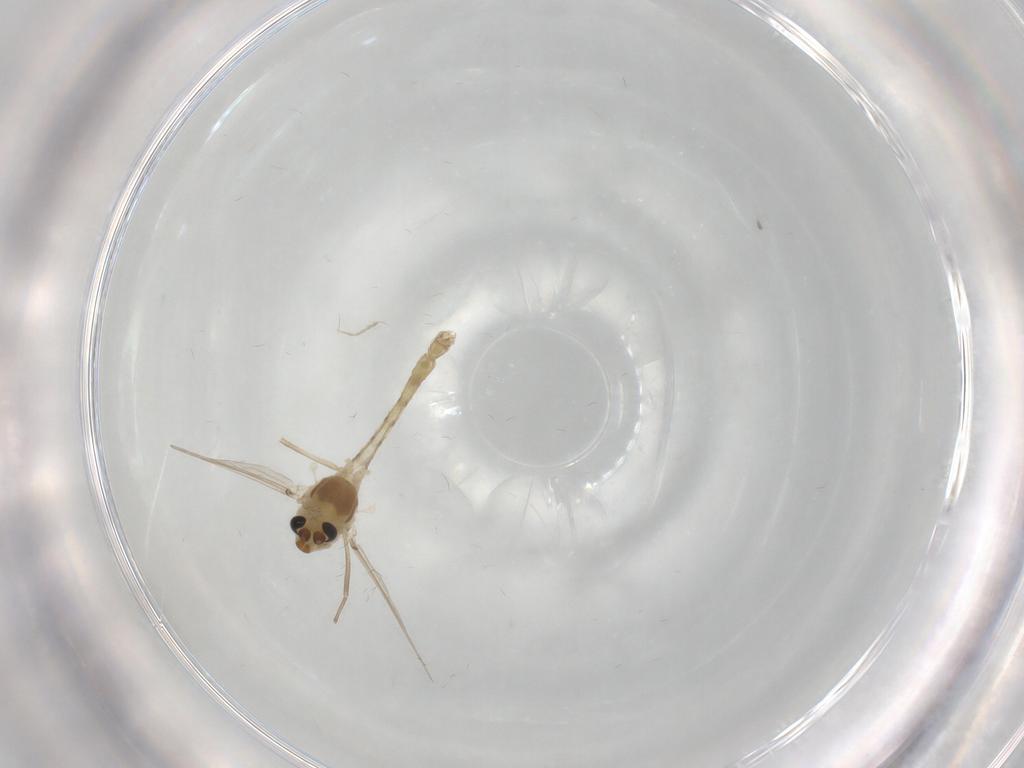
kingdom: Animalia
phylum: Arthropoda
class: Insecta
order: Diptera
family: Chironomidae
